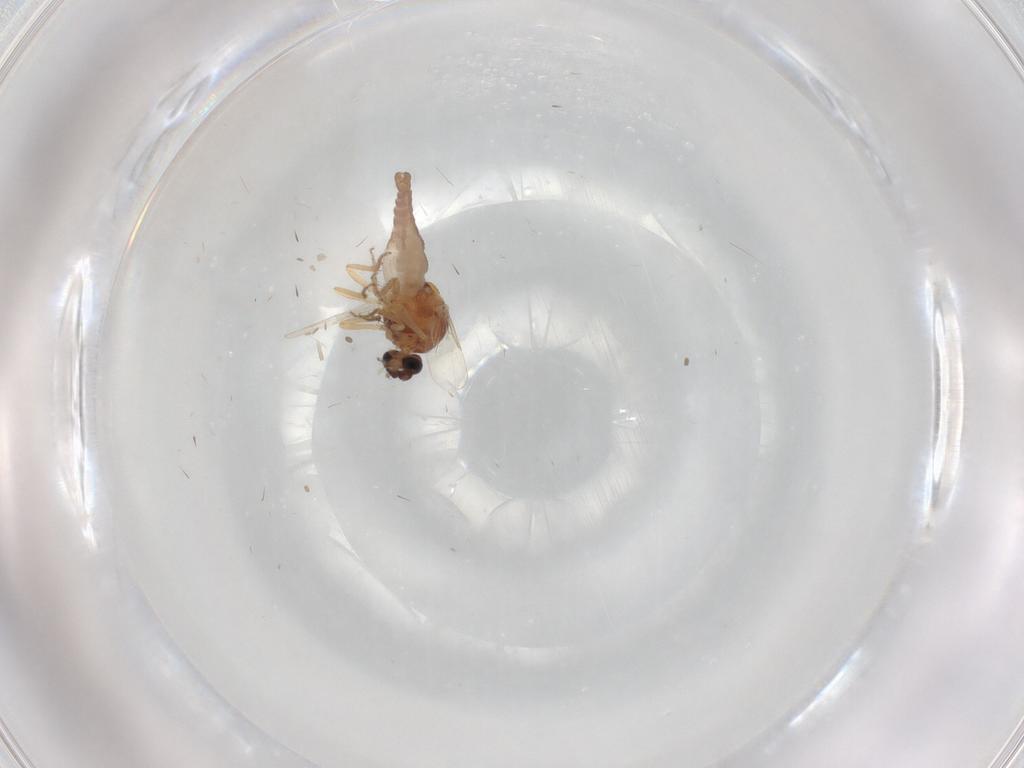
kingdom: Animalia
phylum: Arthropoda
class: Insecta
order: Diptera
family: Ceratopogonidae
